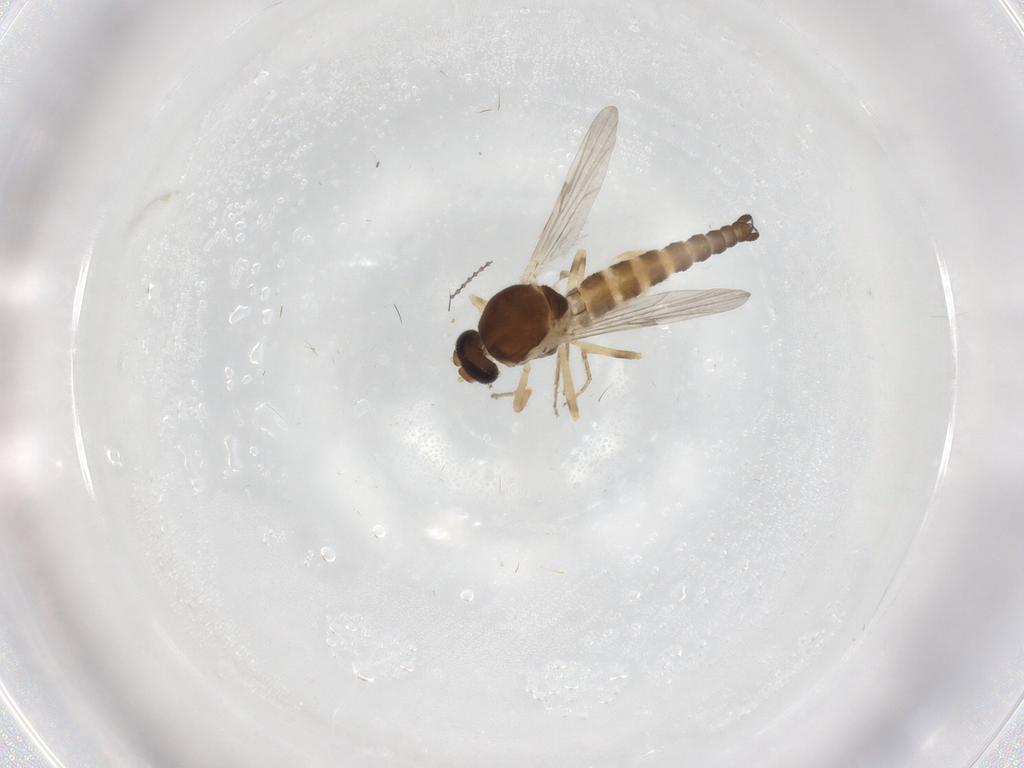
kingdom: Animalia
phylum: Arthropoda
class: Insecta
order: Diptera
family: Ceratopogonidae
